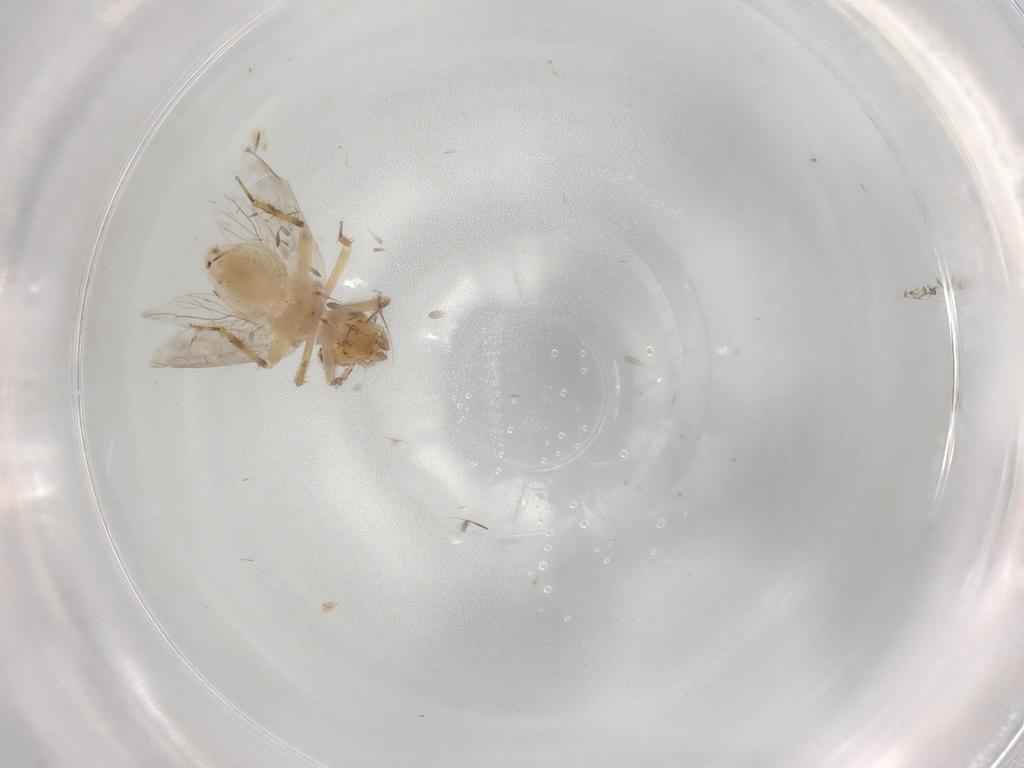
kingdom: Animalia
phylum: Arthropoda
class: Insecta
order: Psocodea
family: Lepidopsocidae
